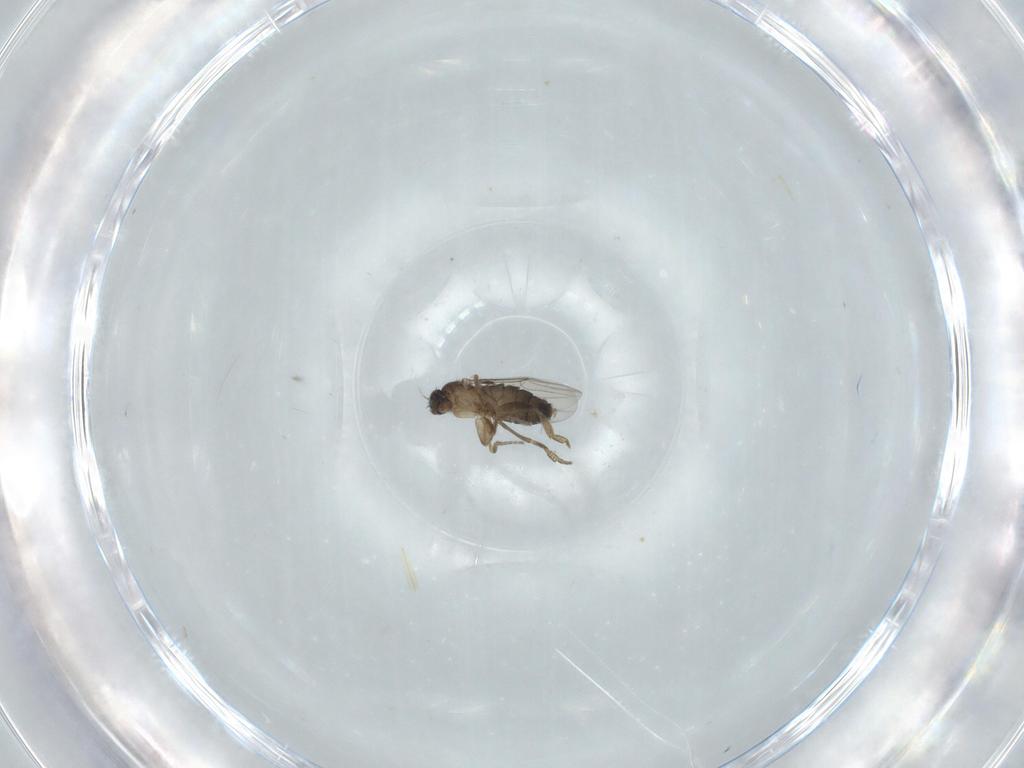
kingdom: Animalia
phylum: Arthropoda
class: Insecta
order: Diptera
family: Phoridae
